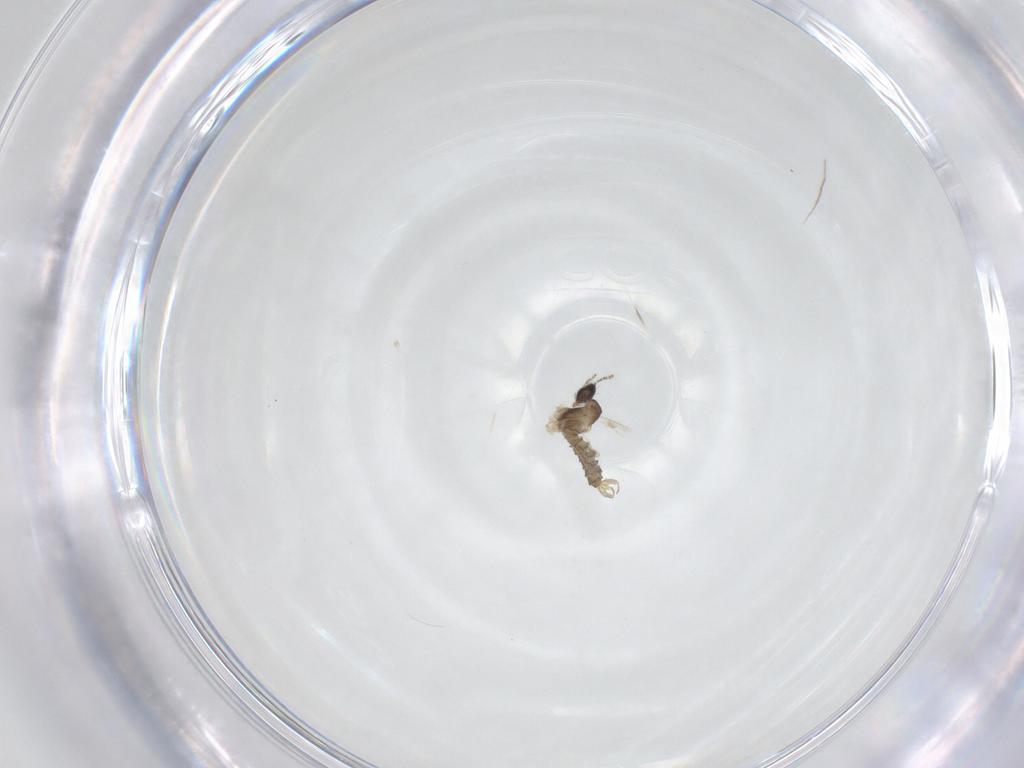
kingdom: Animalia
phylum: Arthropoda
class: Insecta
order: Diptera
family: Cecidomyiidae
